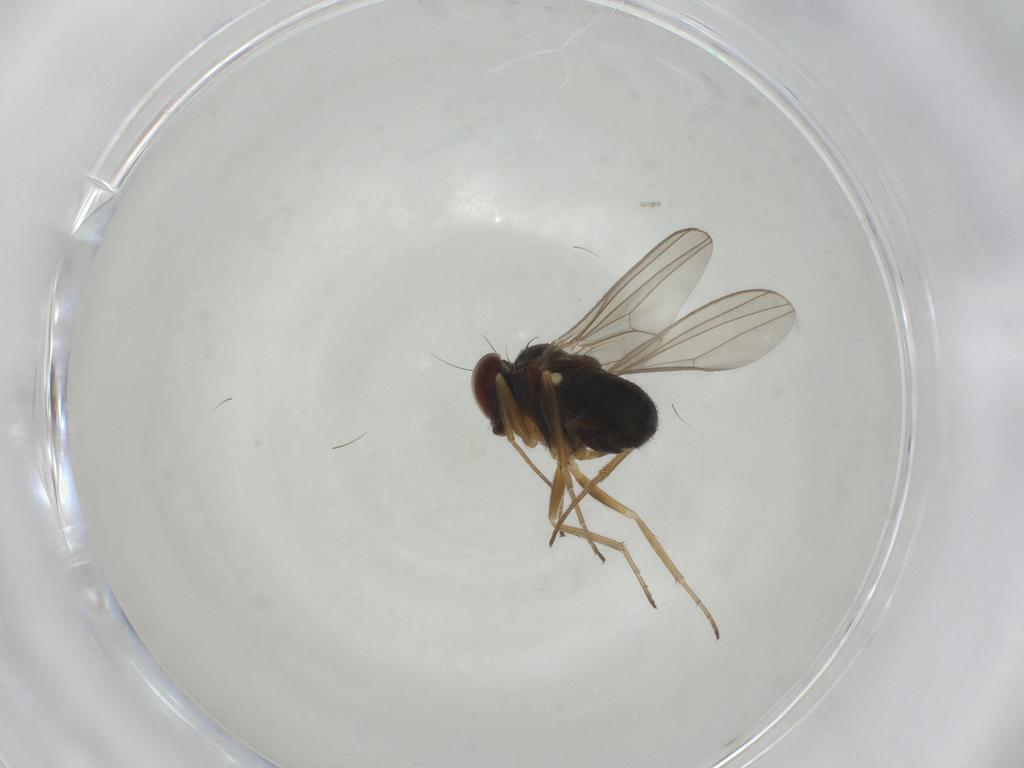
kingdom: Animalia
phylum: Arthropoda
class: Insecta
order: Diptera
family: Dolichopodidae
